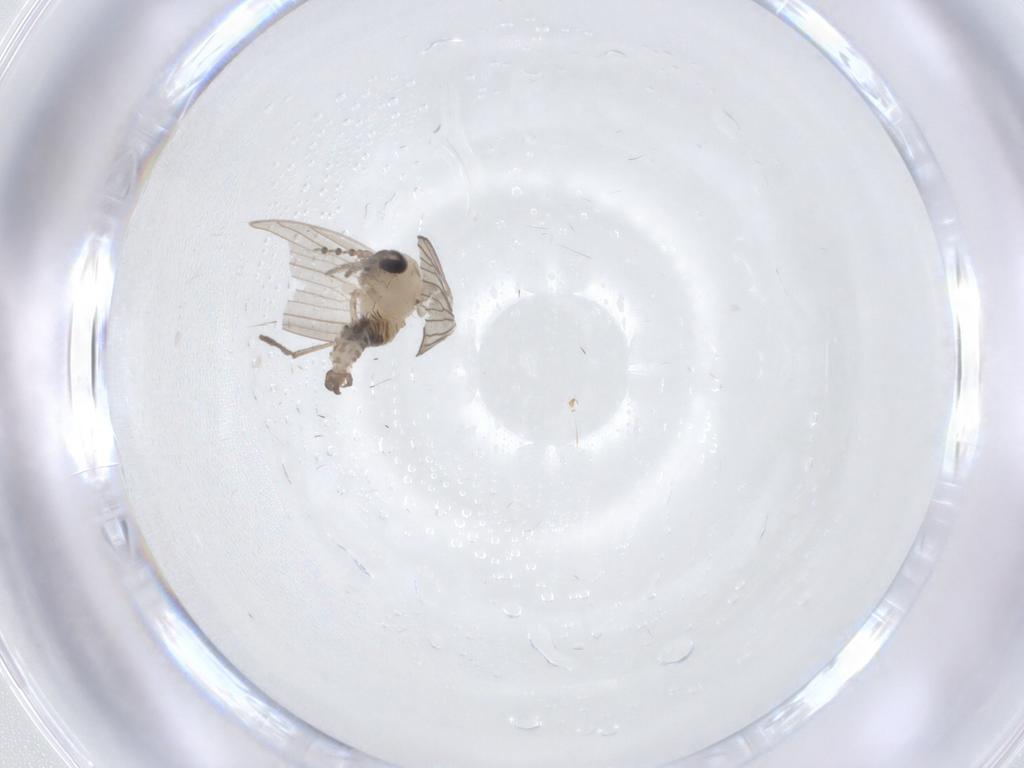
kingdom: Animalia
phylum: Arthropoda
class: Insecta
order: Diptera
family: Psychodidae
